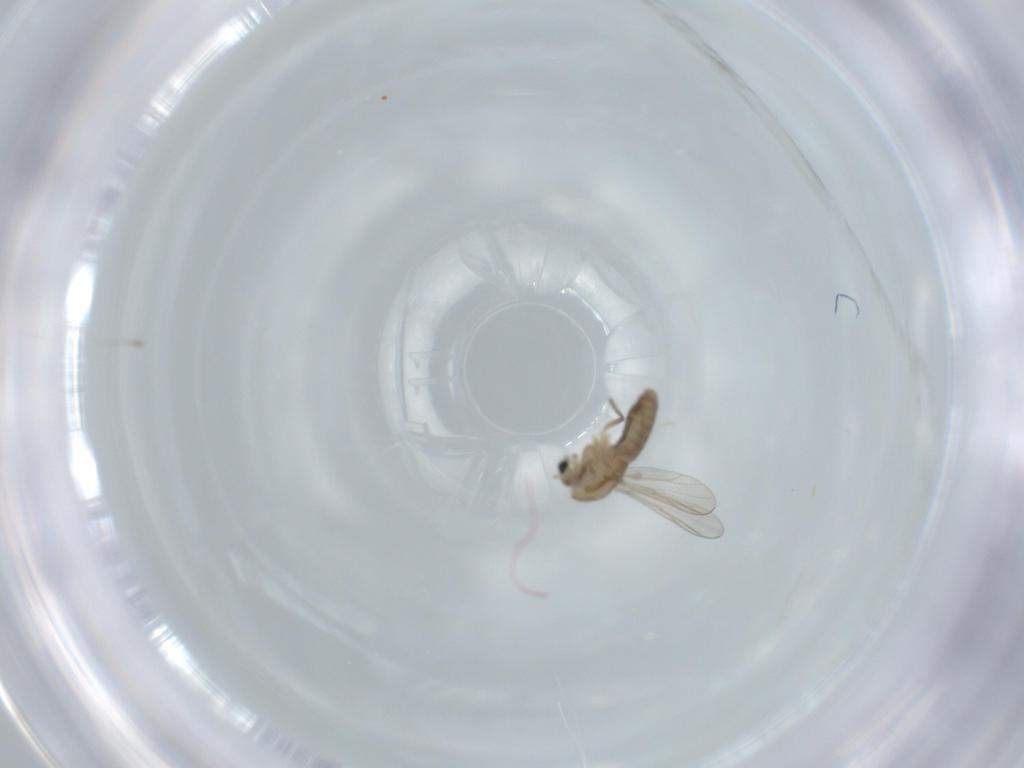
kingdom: Animalia
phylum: Arthropoda
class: Insecta
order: Diptera
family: Chironomidae
